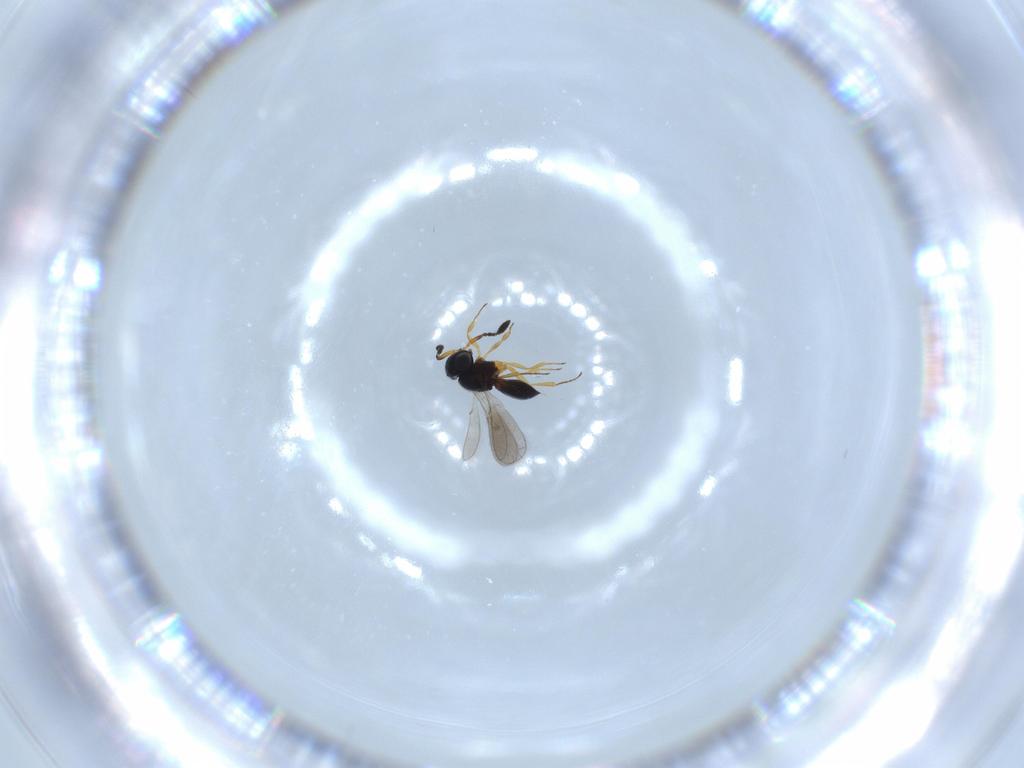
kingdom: Animalia
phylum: Arthropoda
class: Insecta
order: Hymenoptera
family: Scelionidae
